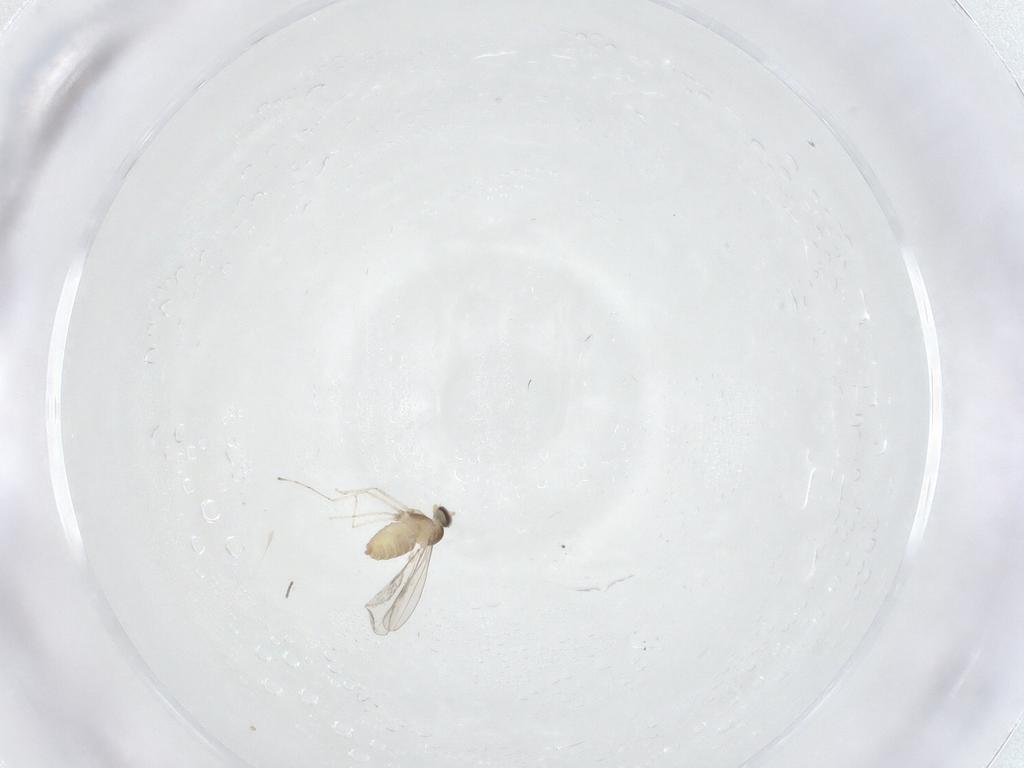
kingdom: Animalia
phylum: Arthropoda
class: Insecta
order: Diptera
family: Cecidomyiidae
